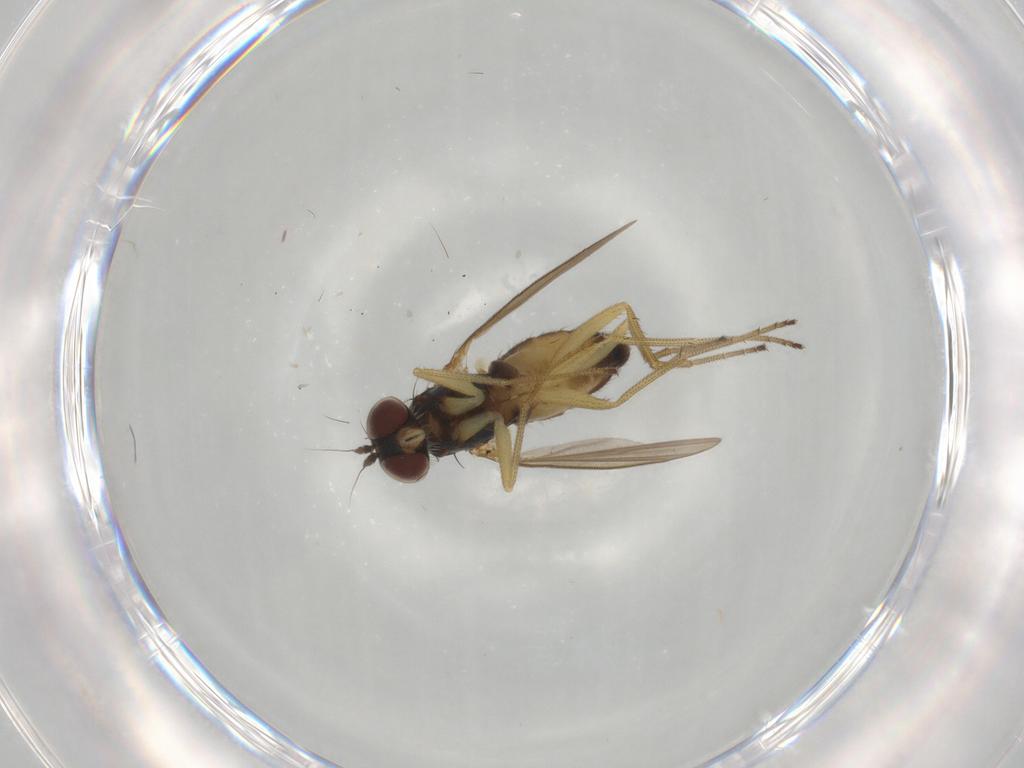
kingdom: Animalia
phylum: Arthropoda
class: Insecta
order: Diptera
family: Dolichopodidae
